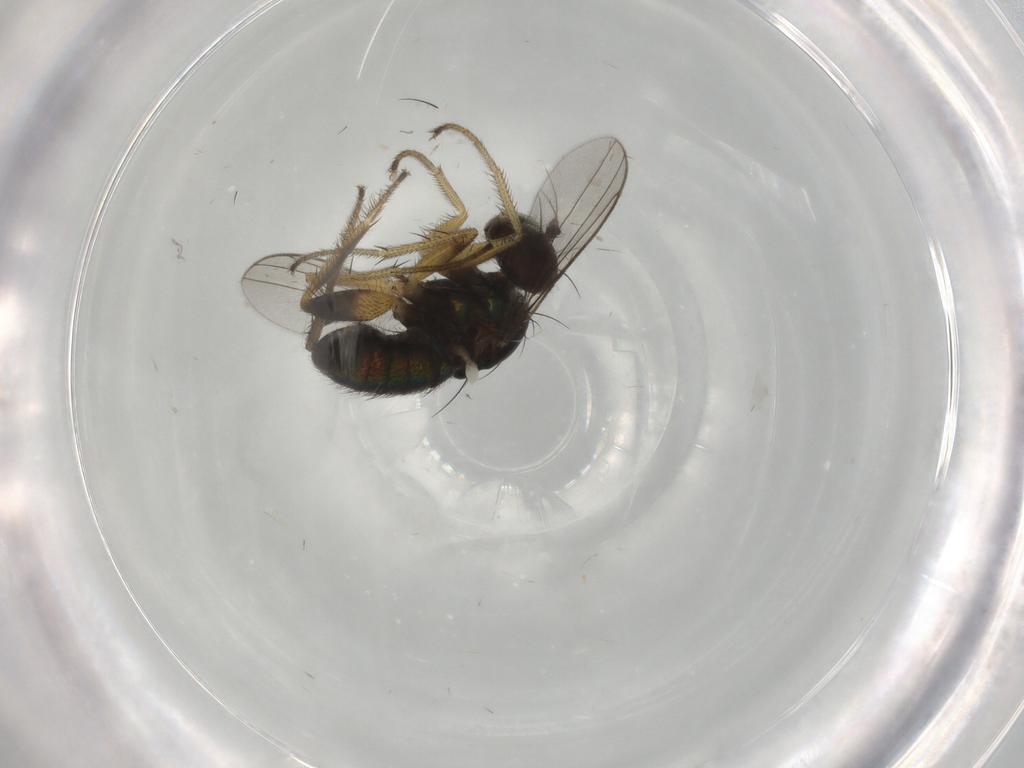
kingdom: Animalia
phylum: Arthropoda
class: Insecta
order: Diptera
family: Dolichopodidae
